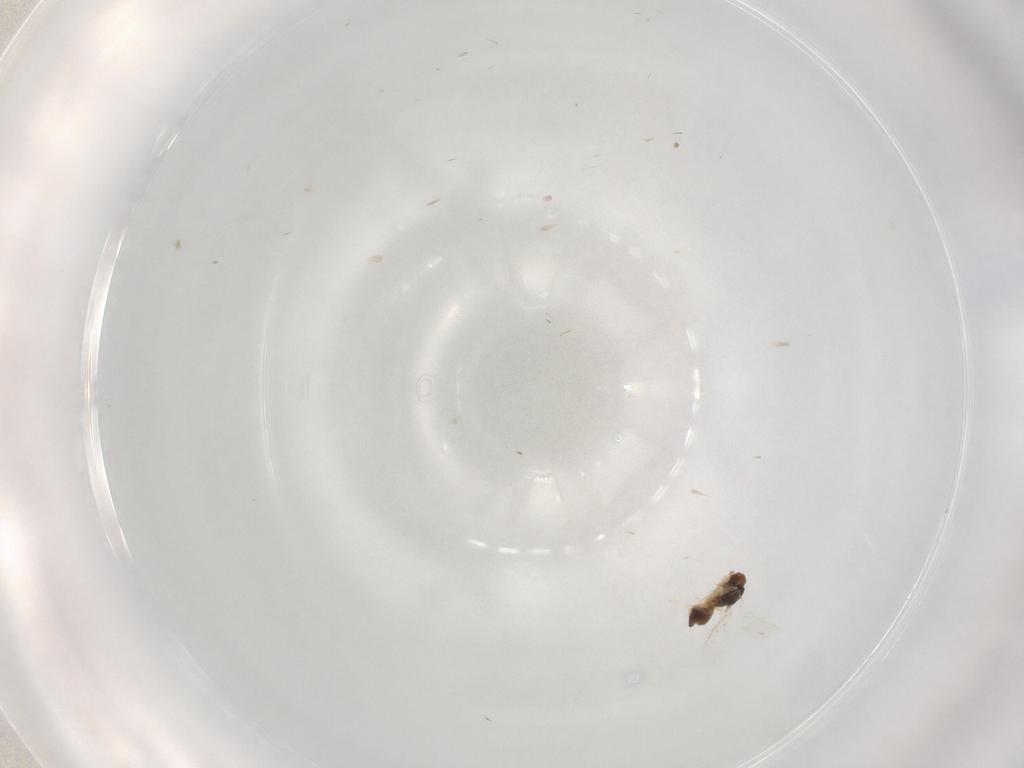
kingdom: Animalia
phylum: Arthropoda
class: Insecta
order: Hymenoptera
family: Eulophidae
